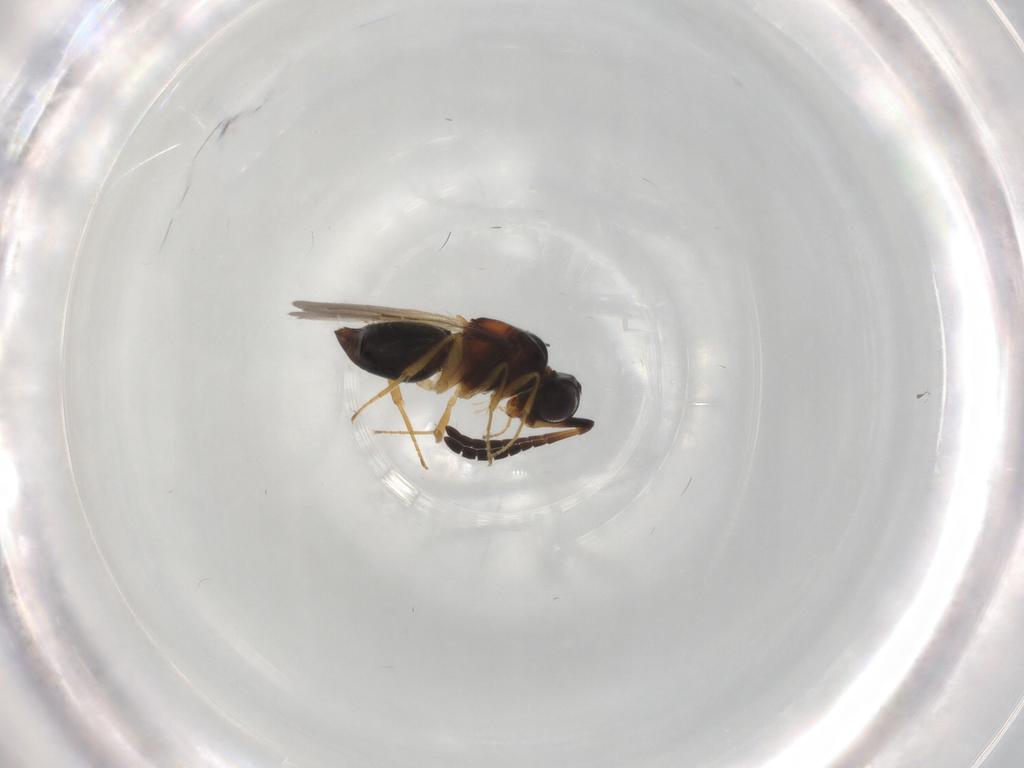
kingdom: Animalia
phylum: Arthropoda
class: Insecta
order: Hymenoptera
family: Ceraphronidae
